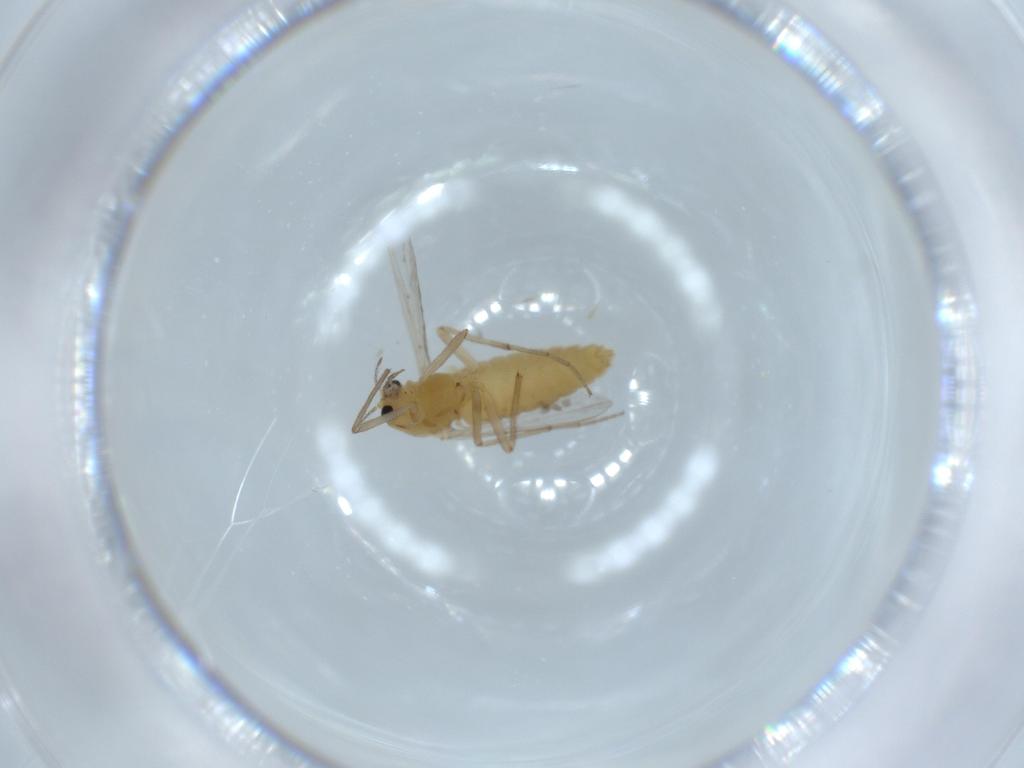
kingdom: Animalia
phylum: Arthropoda
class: Insecta
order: Diptera
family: Chironomidae
